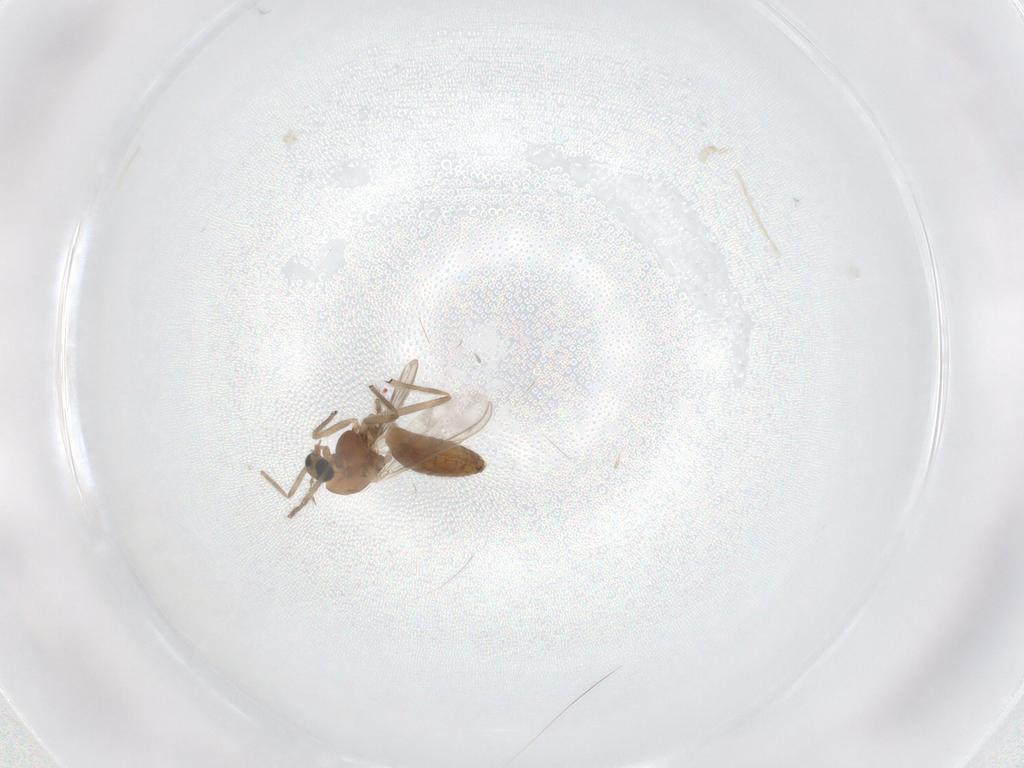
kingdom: Animalia
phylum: Arthropoda
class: Insecta
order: Diptera
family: Chironomidae
